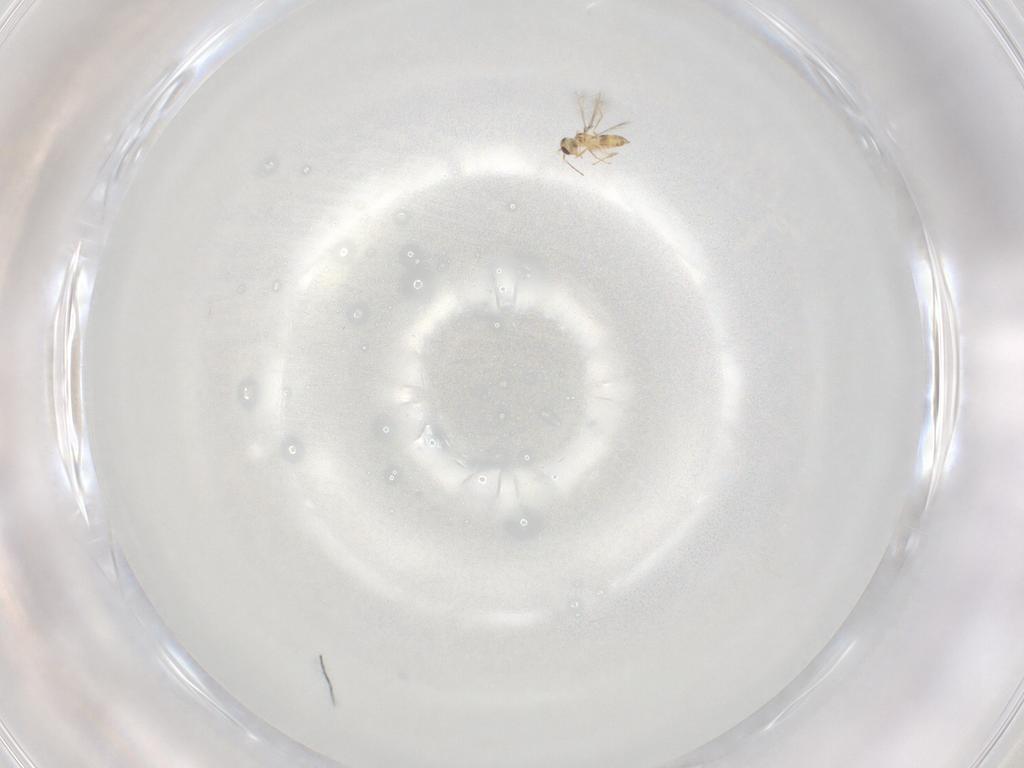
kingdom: Animalia
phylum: Arthropoda
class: Insecta
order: Hymenoptera
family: Mymaridae
